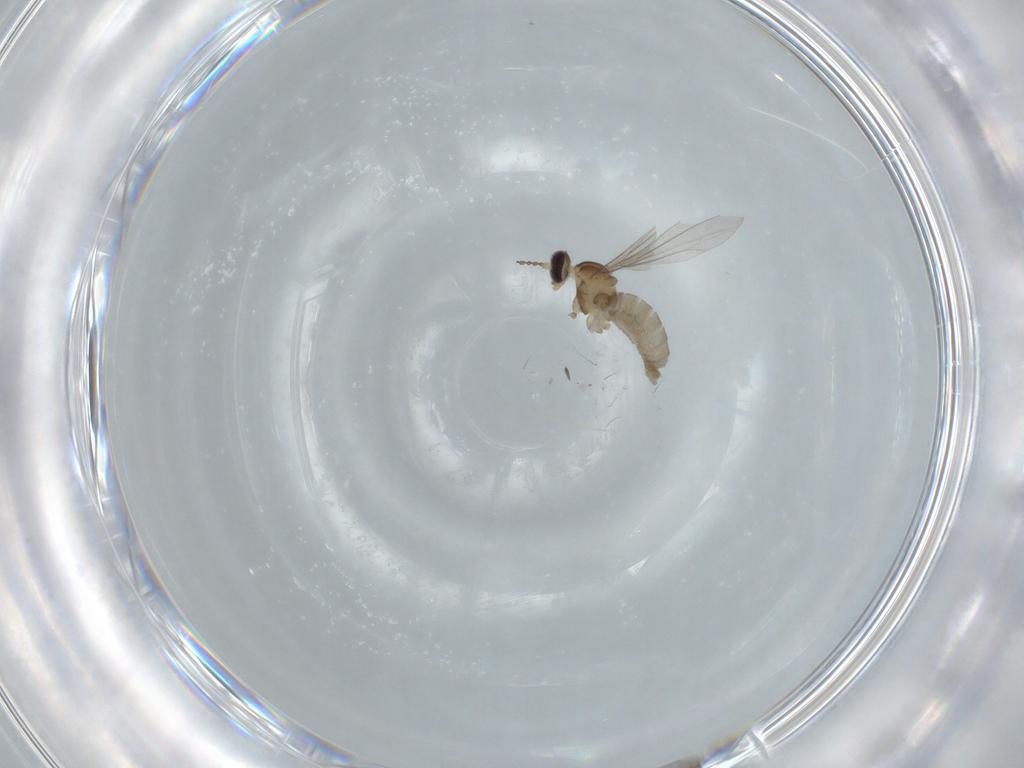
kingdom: Animalia
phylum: Arthropoda
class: Insecta
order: Diptera
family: Cecidomyiidae
